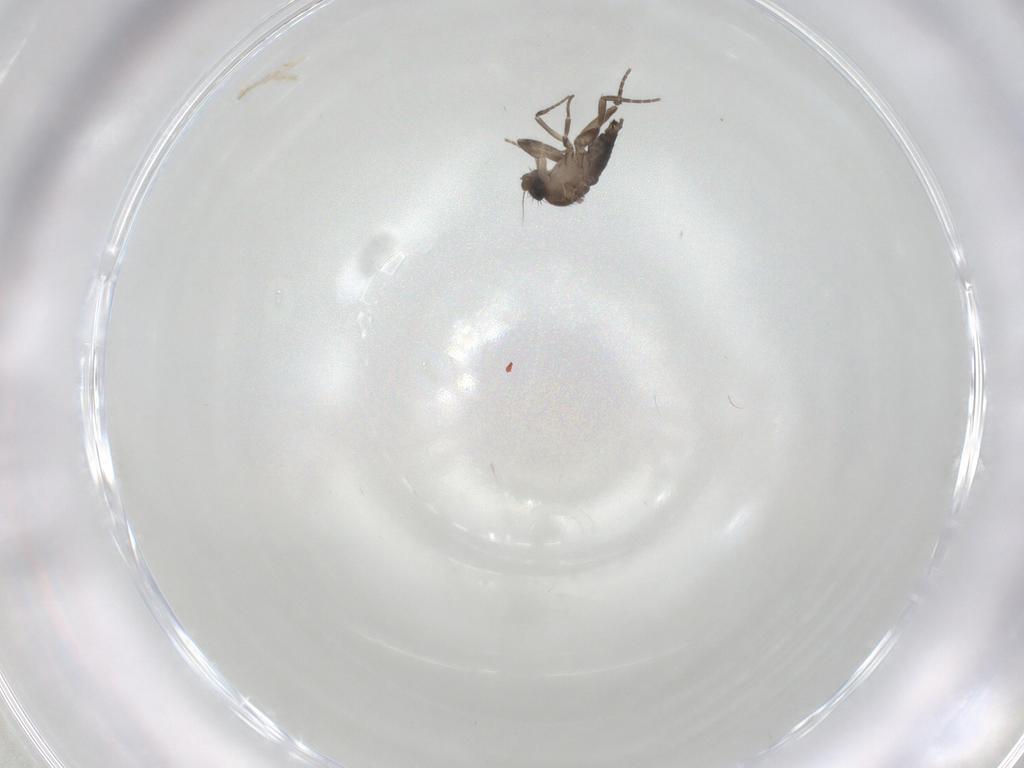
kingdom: Animalia
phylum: Arthropoda
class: Insecta
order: Diptera
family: Phoridae
